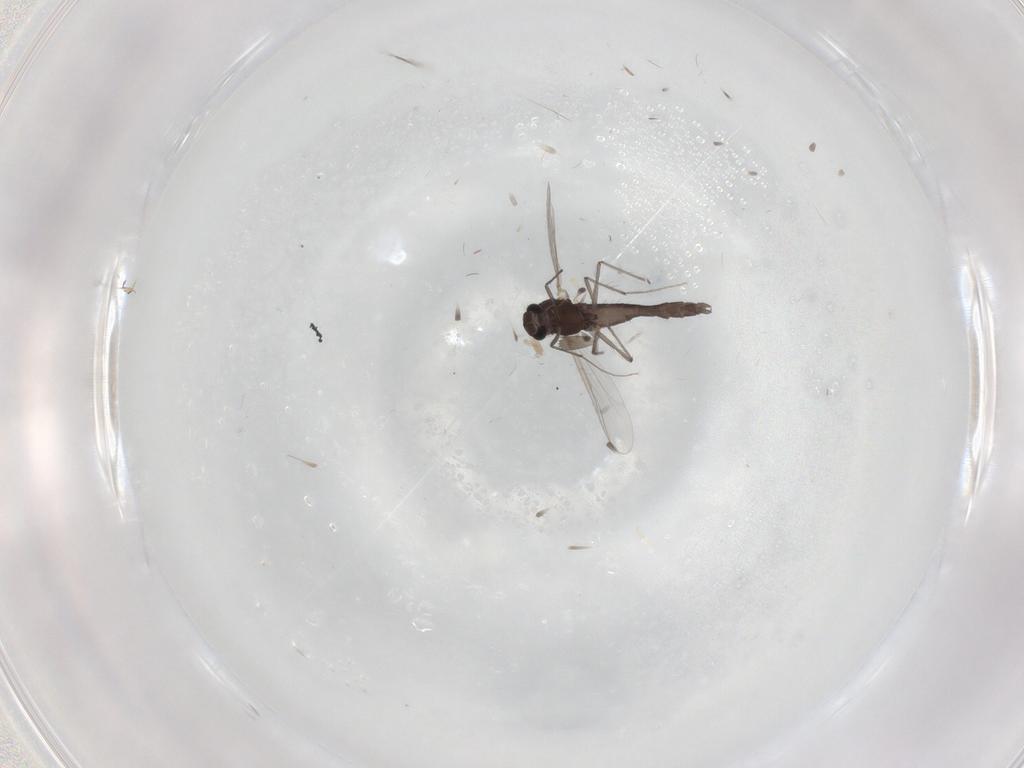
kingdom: Animalia
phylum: Arthropoda
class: Insecta
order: Diptera
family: Chironomidae
